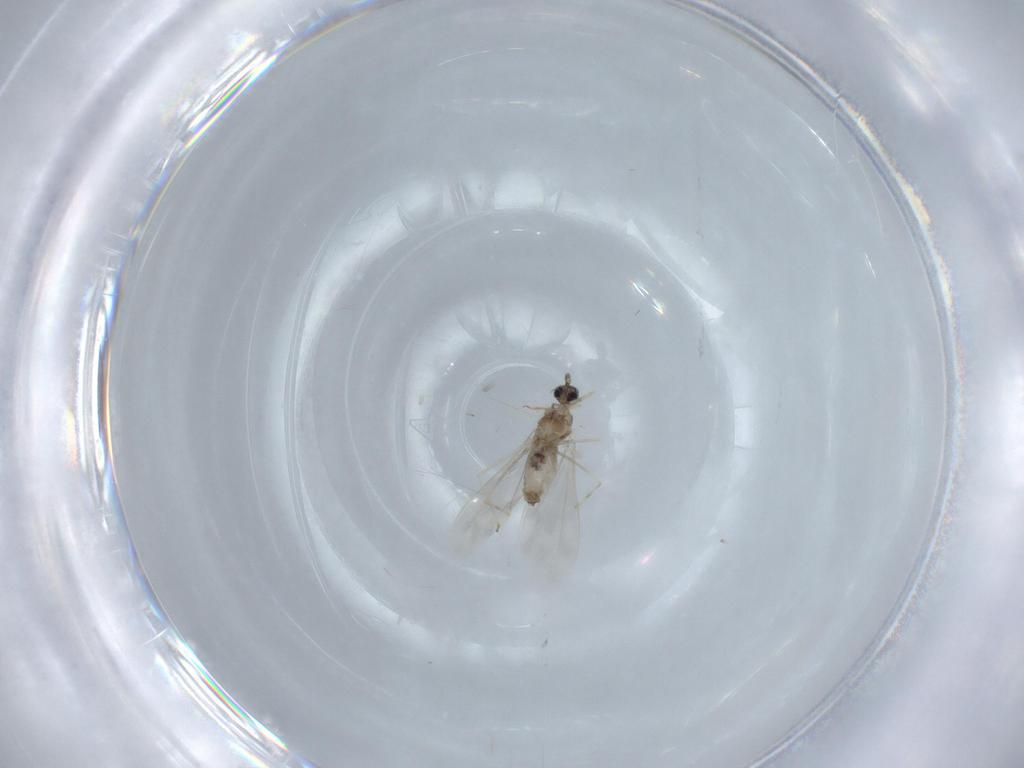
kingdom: Animalia
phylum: Arthropoda
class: Insecta
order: Diptera
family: Cecidomyiidae
